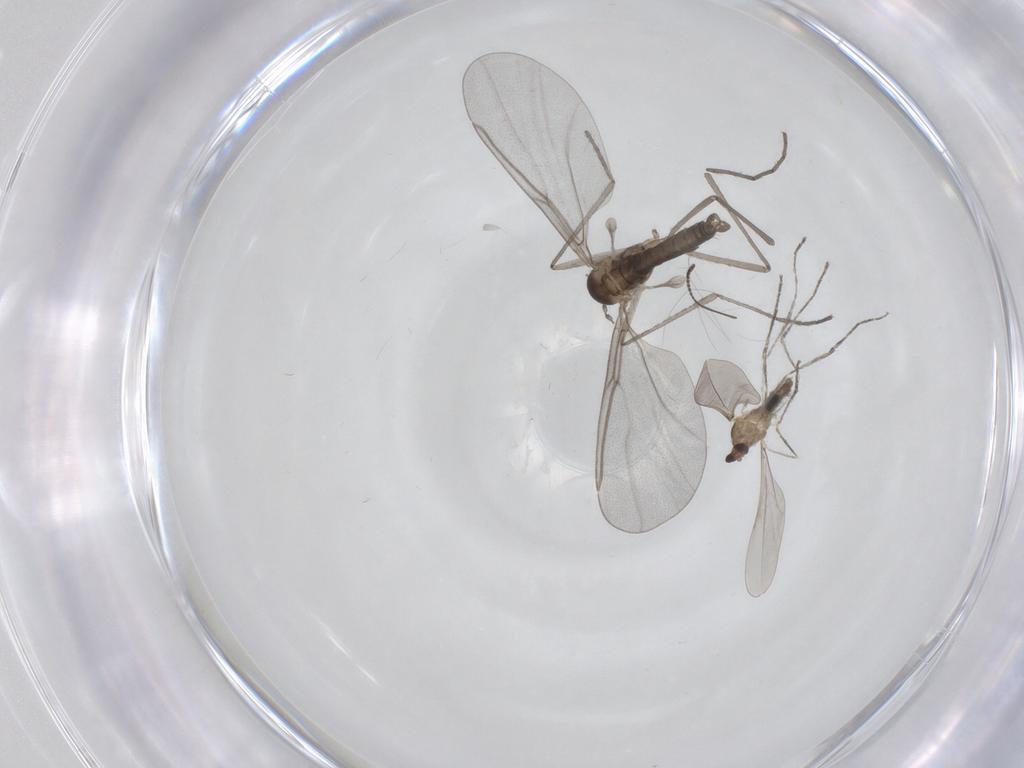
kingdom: Animalia
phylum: Arthropoda
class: Insecta
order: Diptera
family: Cecidomyiidae
